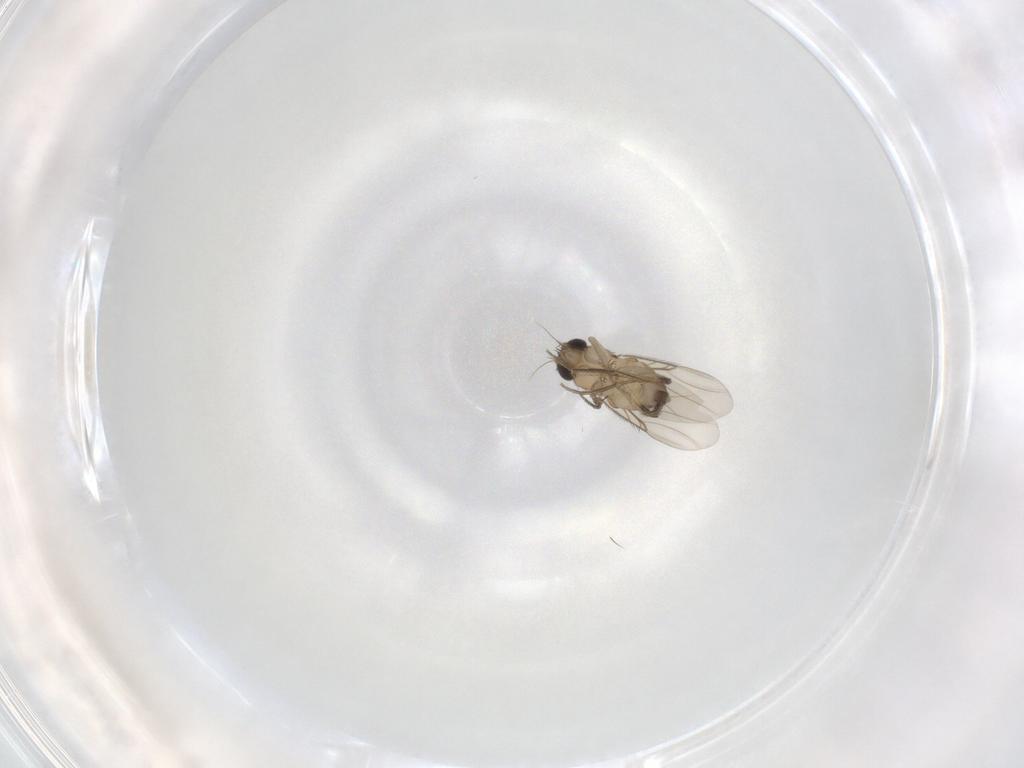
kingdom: Animalia
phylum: Arthropoda
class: Insecta
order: Diptera
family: Phoridae
